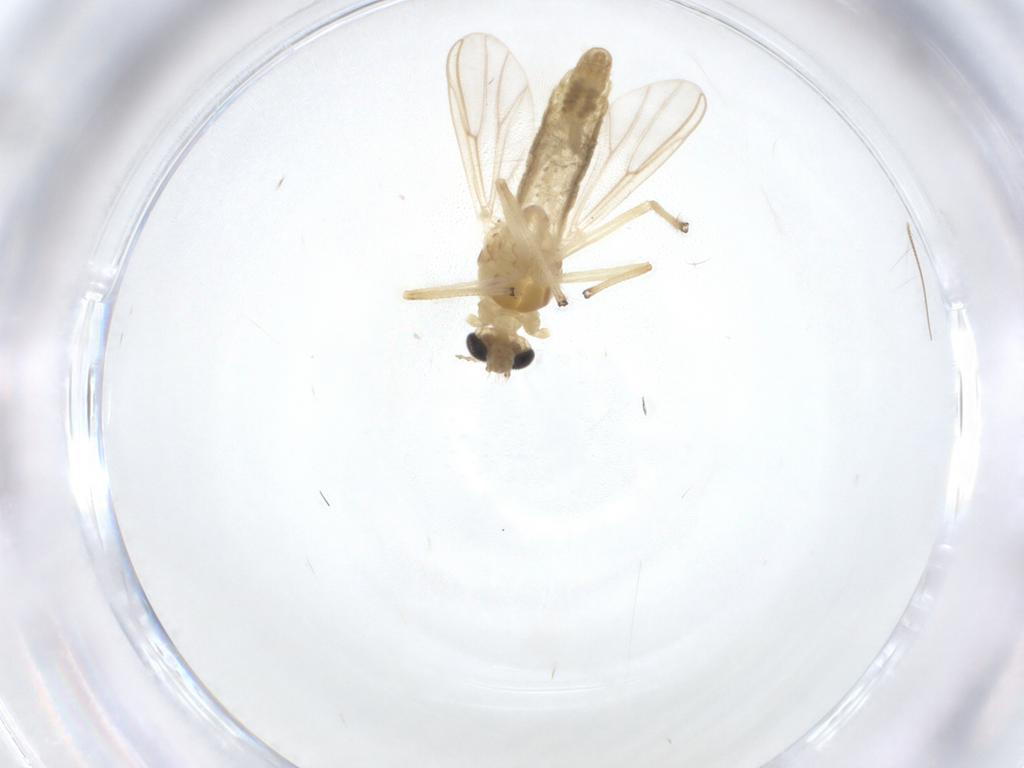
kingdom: Animalia
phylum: Arthropoda
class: Insecta
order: Diptera
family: Chironomidae
